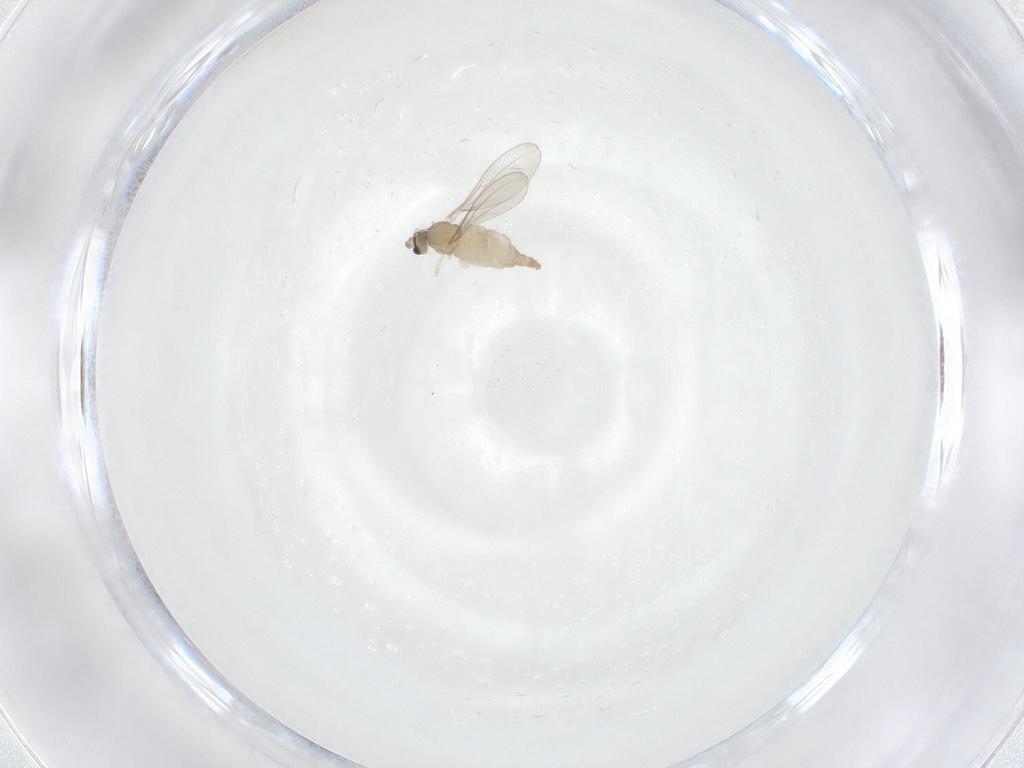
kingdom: Animalia
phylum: Arthropoda
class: Insecta
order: Diptera
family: Cecidomyiidae
